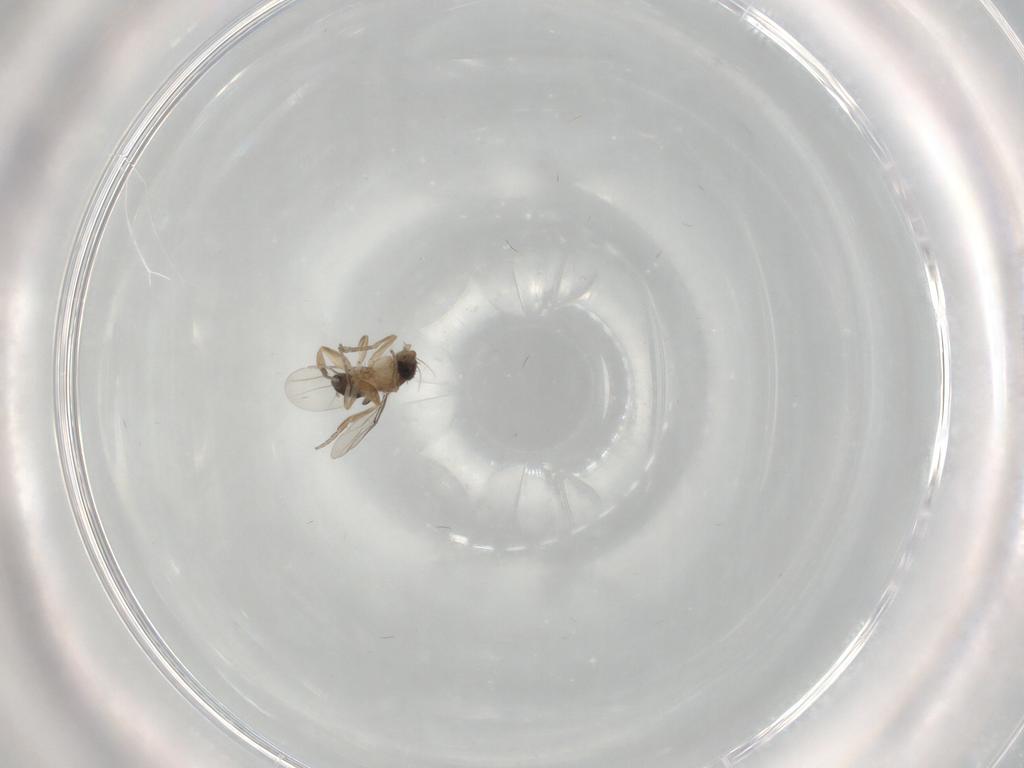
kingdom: Animalia
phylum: Arthropoda
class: Insecta
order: Diptera
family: Phoridae
